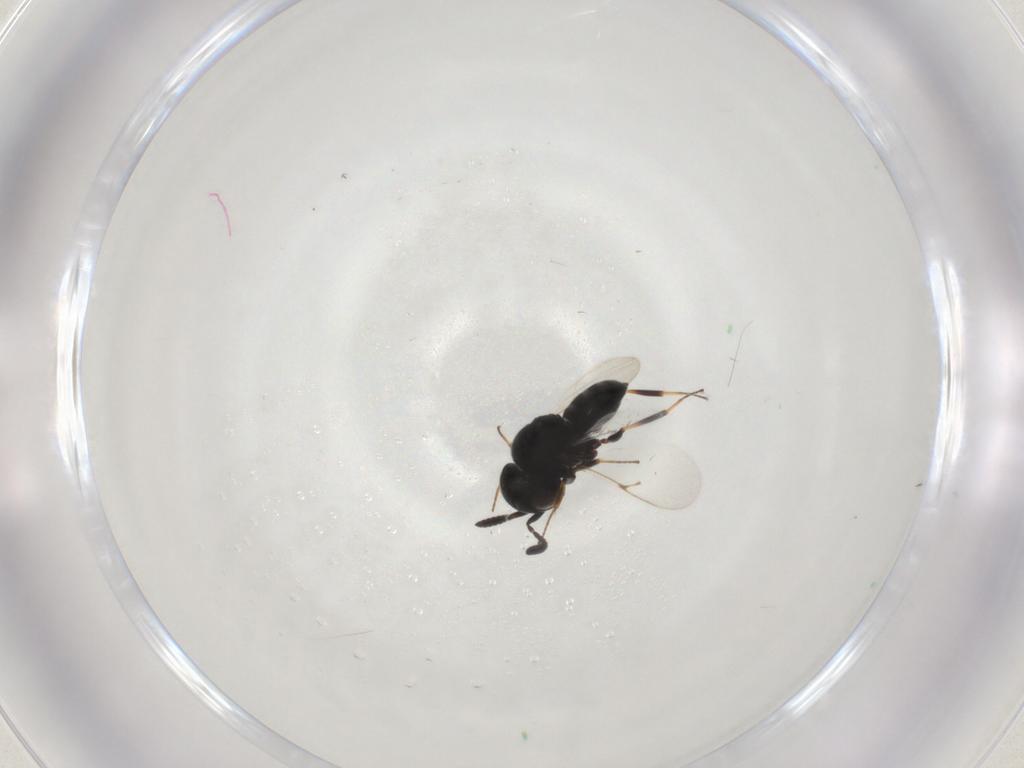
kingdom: Animalia
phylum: Arthropoda
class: Insecta
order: Hymenoptera
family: Scelionidae
